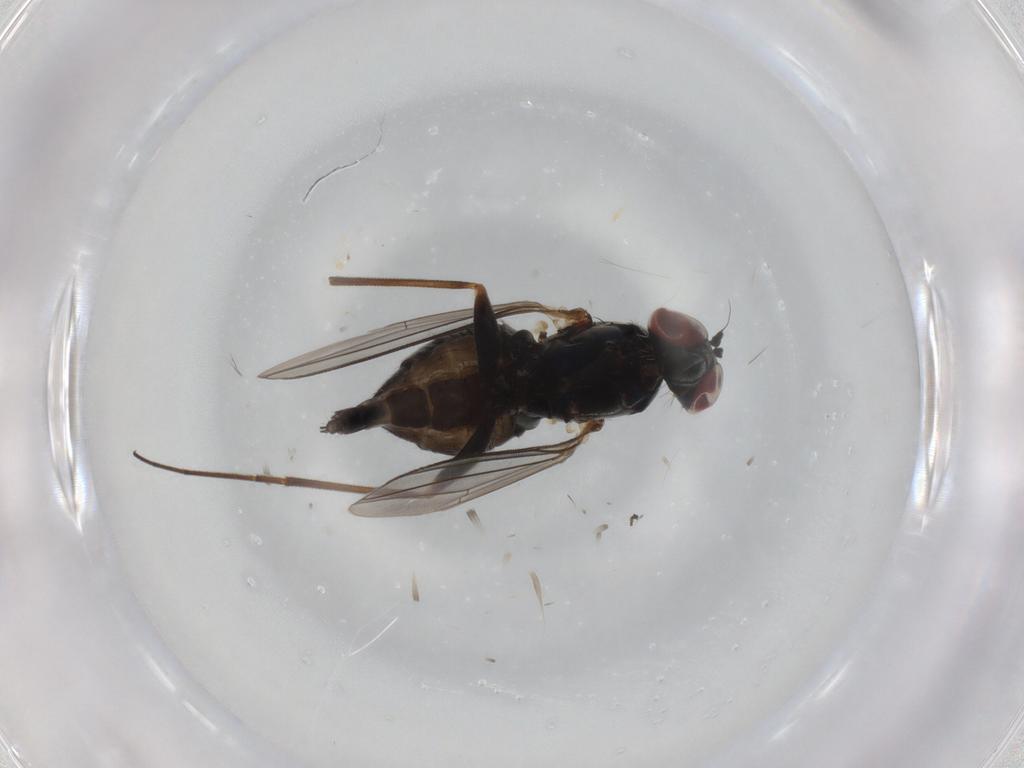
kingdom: Animalia
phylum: Arthropoda
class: Insecta
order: Diptera
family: Dolichopodidae
